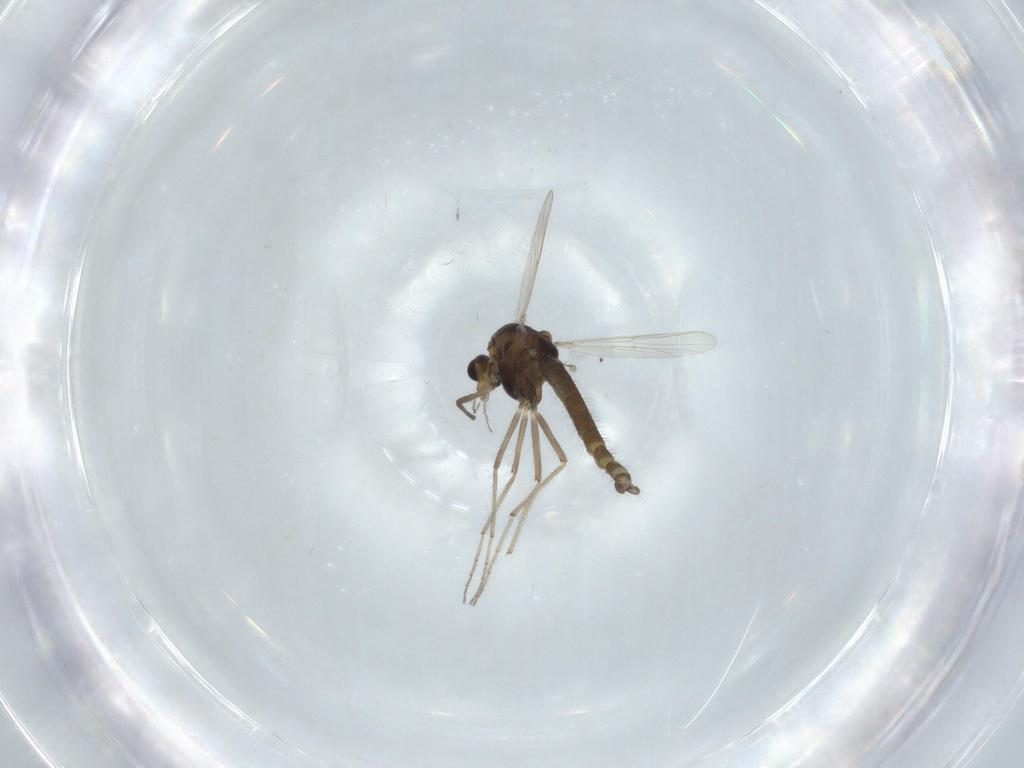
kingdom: Animalia
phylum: Arthropoda
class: Insecta
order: Diptera
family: Chironomidae
